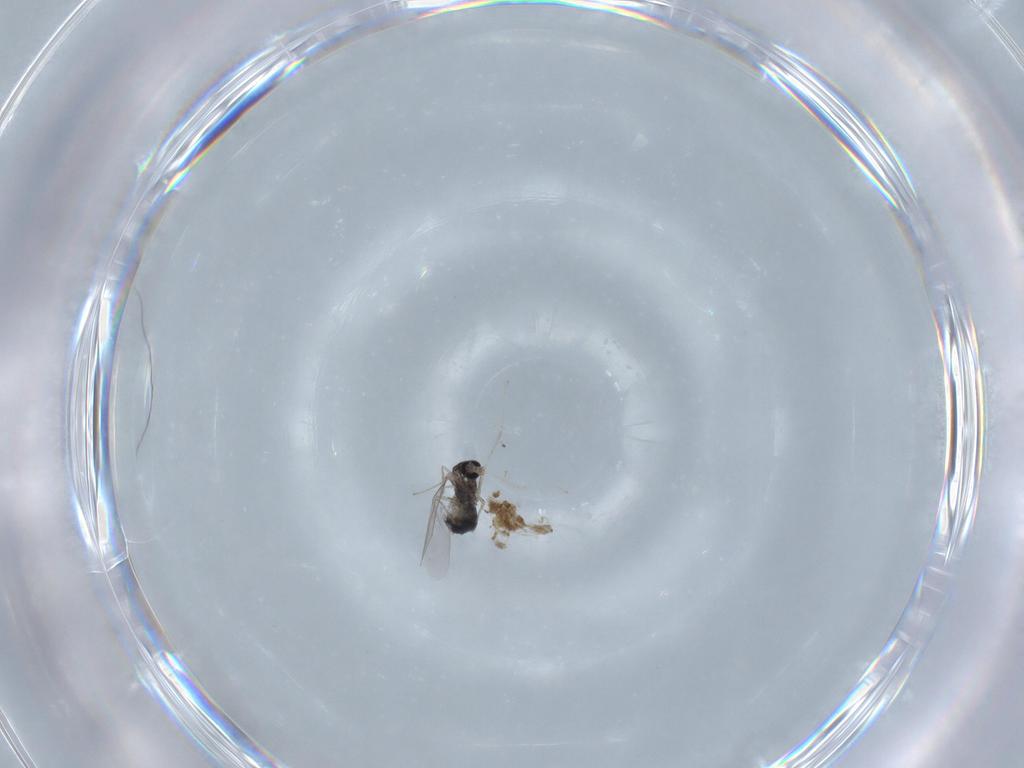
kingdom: Animalia
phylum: Arthropoda
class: Insecta
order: Diptera
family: Cecidomyiidae
